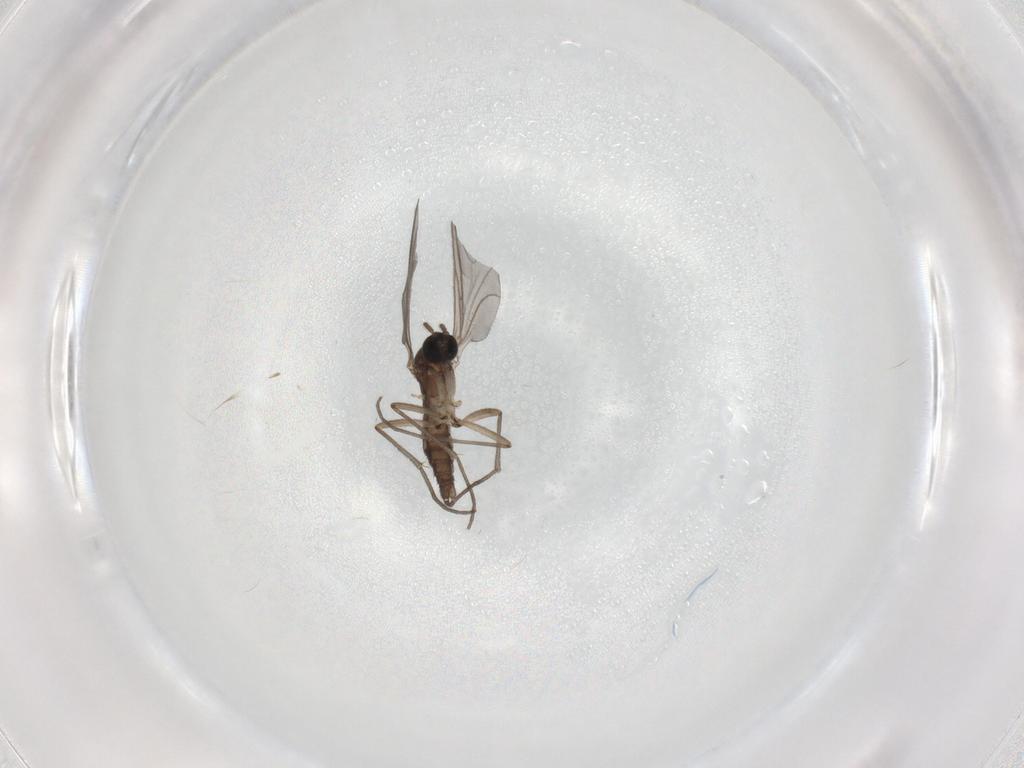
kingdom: Animalia
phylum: Arthropoda
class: Insecta
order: Diptera
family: Sciaridae
